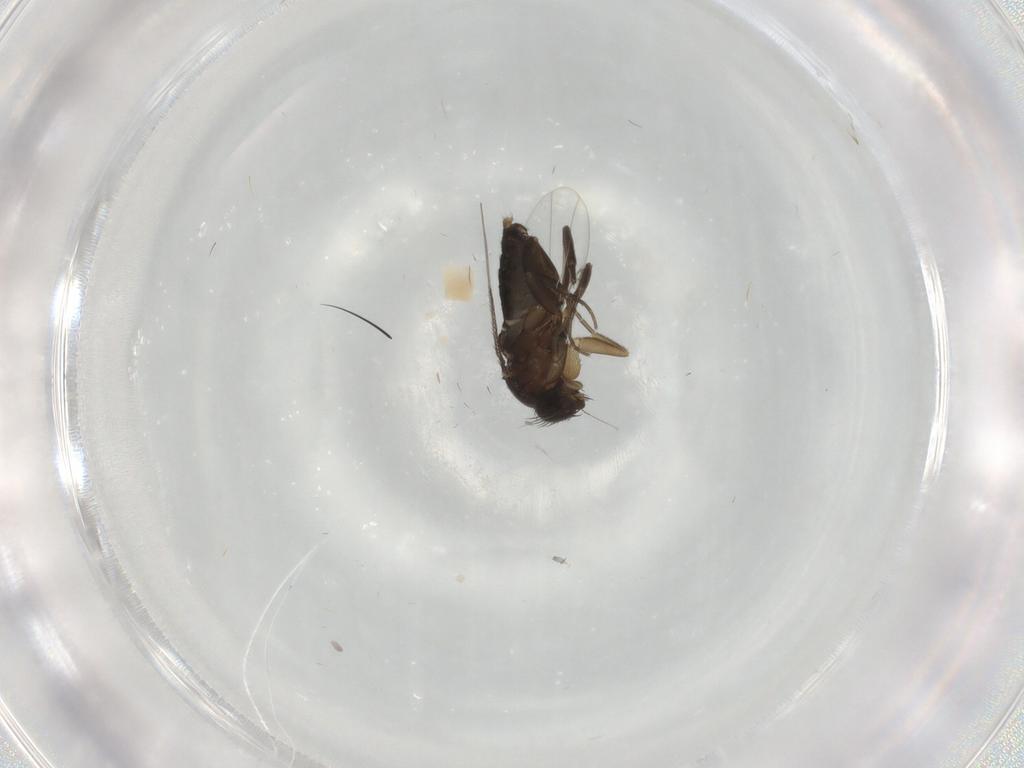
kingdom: Animalia
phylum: Arthropoda
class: Insecta
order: Diptera
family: Phoridae
